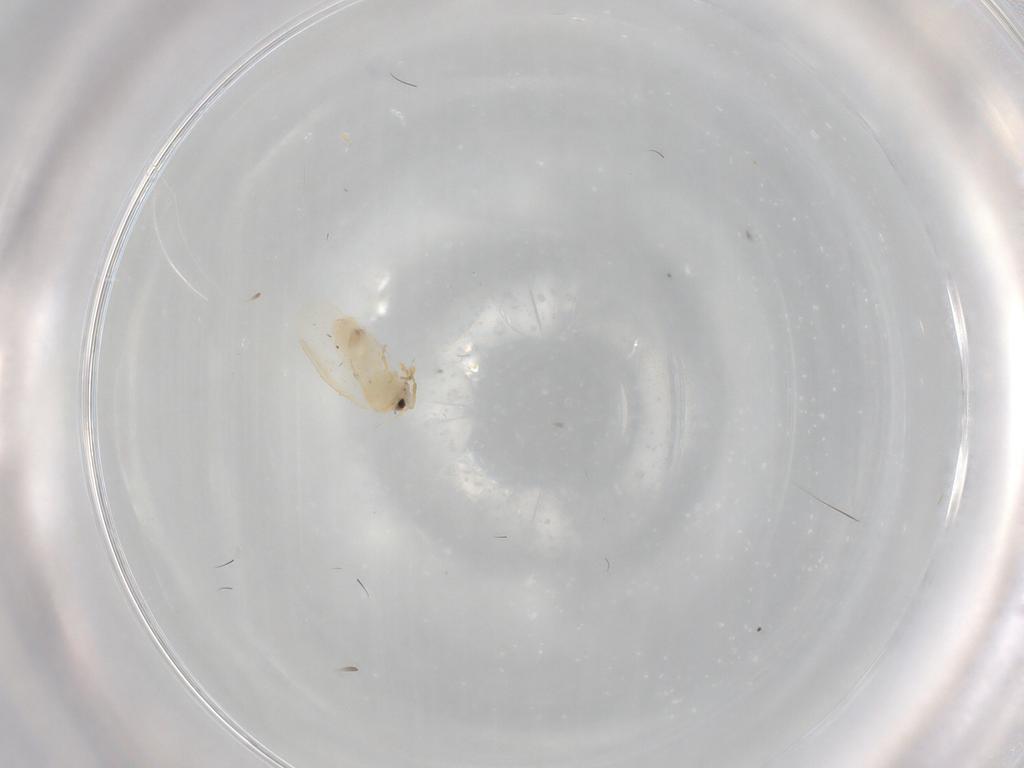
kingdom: Animalia
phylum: Arthropoda
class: Insecta
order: Hemiptera
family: Aleyrodidae
